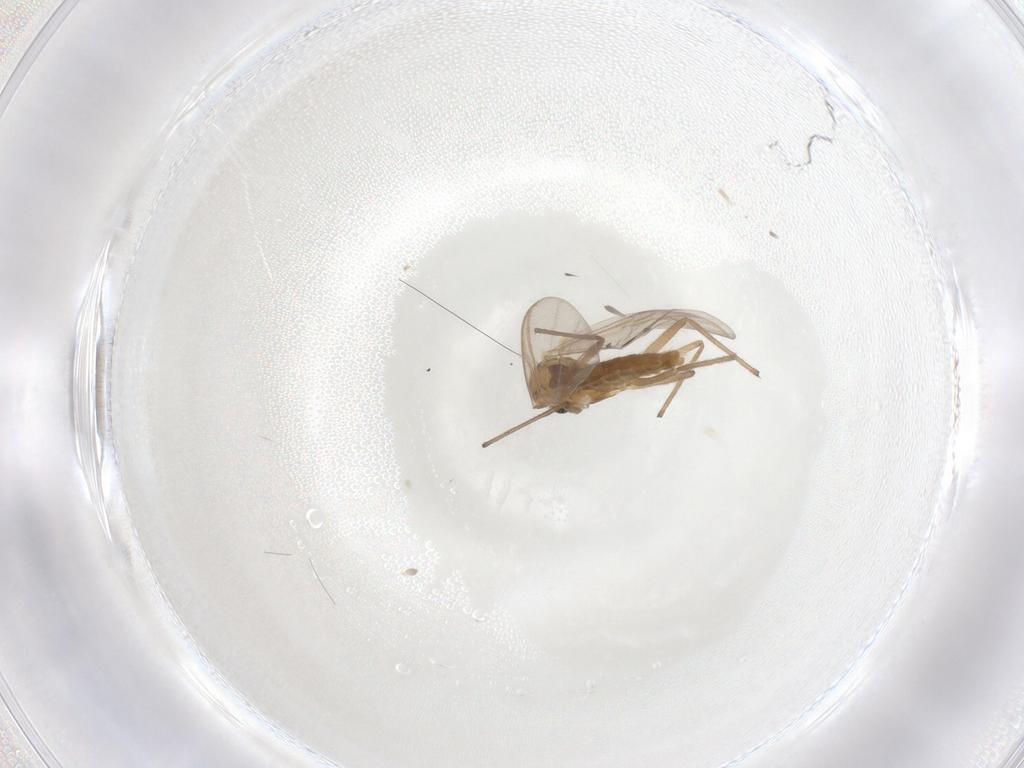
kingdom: Animalia
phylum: Arthropoda
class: Insecta
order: Diptera
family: Chironomidae
